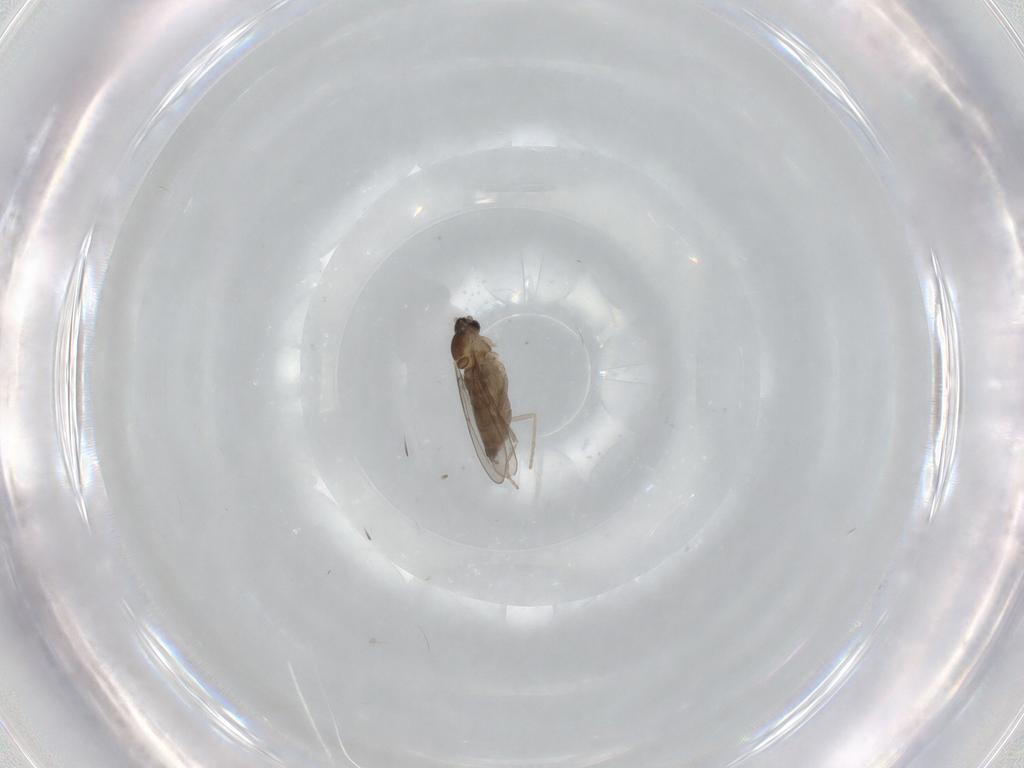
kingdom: Animalia
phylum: Arthropoda
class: Insecta
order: Diptera
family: Cecidomyiidae
